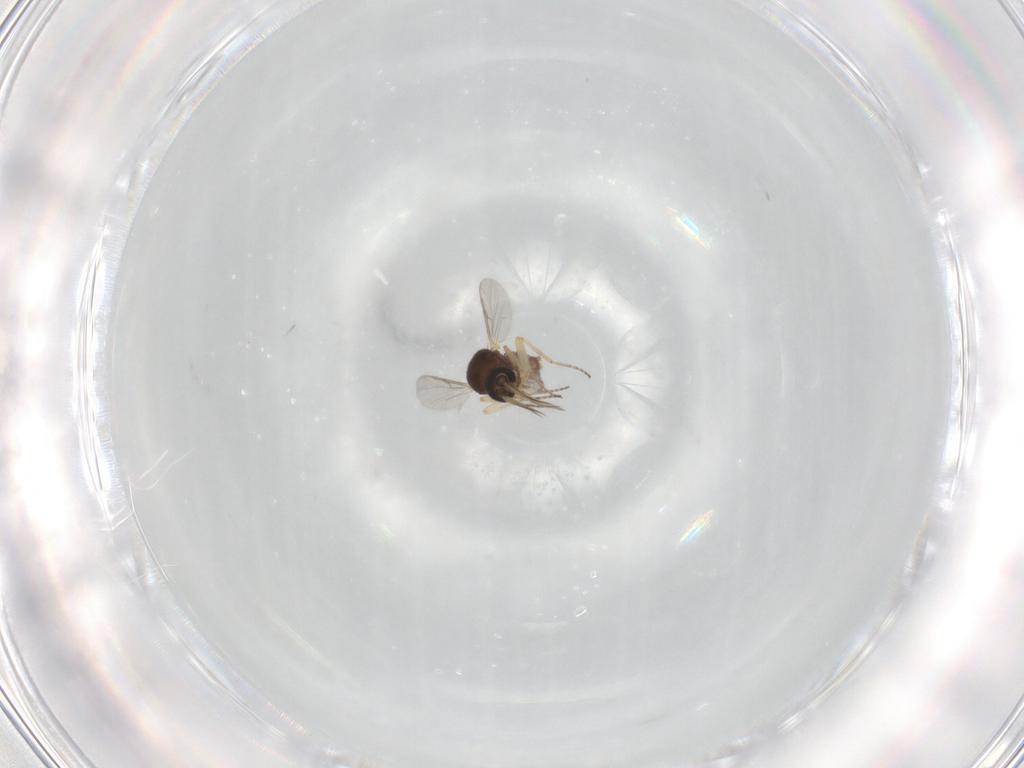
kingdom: Animalia
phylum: Arthropoda
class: Insecta
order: Diptera
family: Ceratopogonidae
